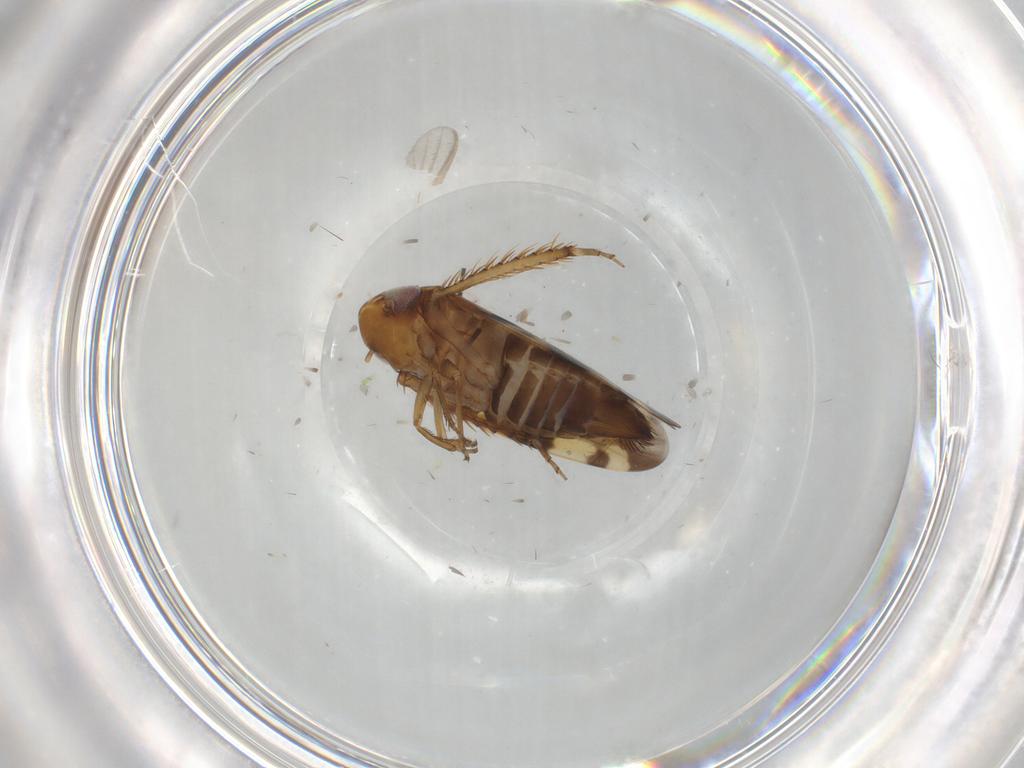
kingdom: Animalia
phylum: Arthropoda
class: Insecta
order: Hemiptera
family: Cicadellidae
